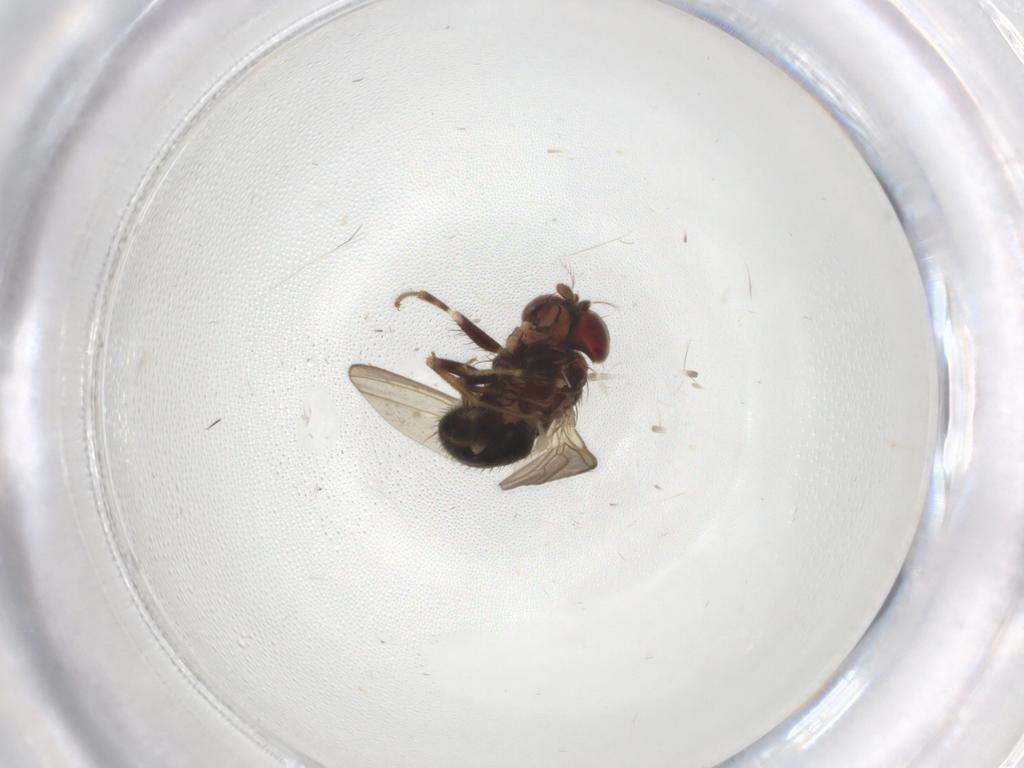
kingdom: Animalia
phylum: Arthropoda
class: Insecta
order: Diptera
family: Drosophilidae
